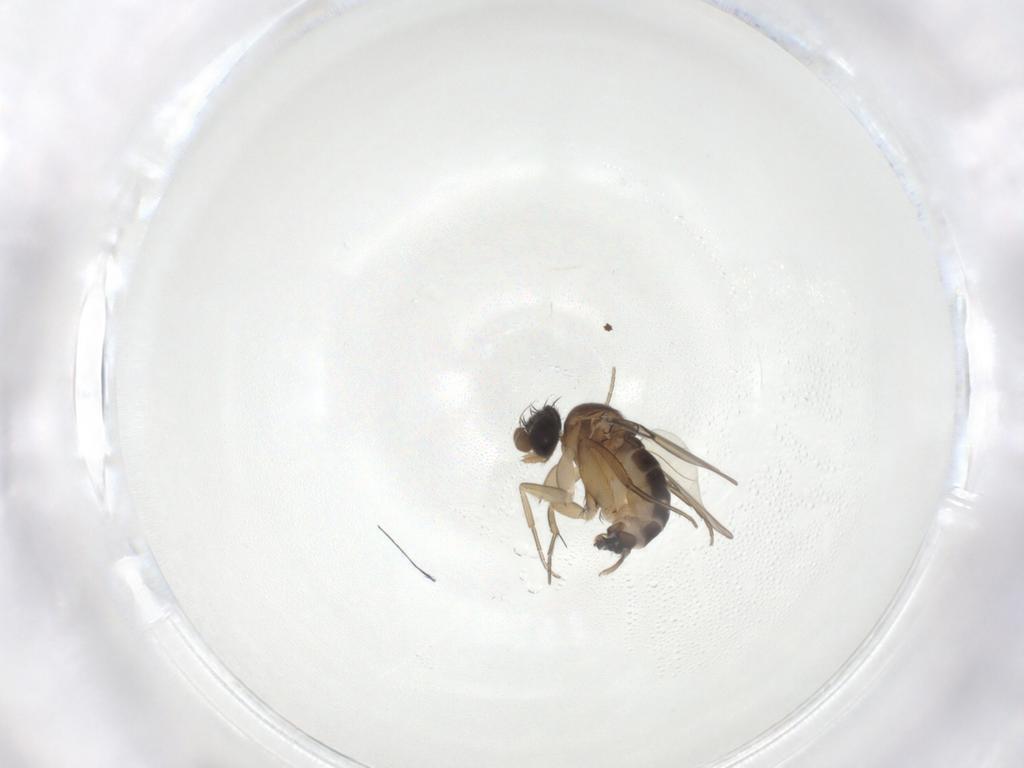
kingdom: Animalia
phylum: Arthropoda
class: Insecta
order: Diptera
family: Phoridae
